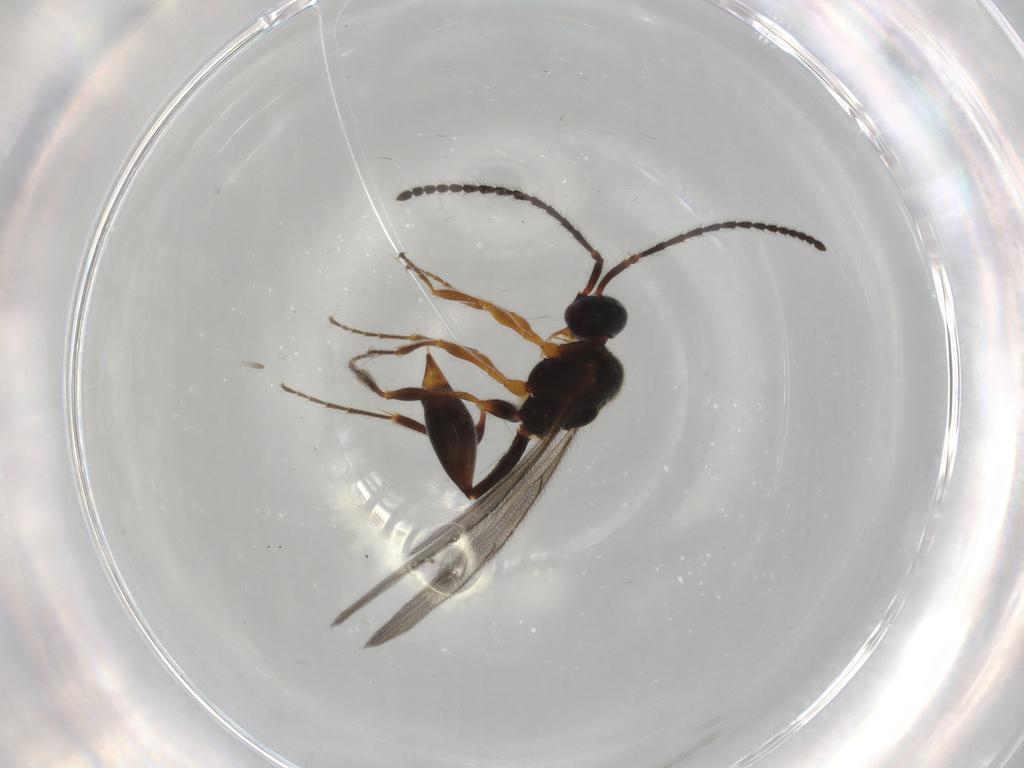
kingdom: Animalia
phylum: Arthropoda
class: Insecta
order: Hymenoptera
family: Diapriidae
